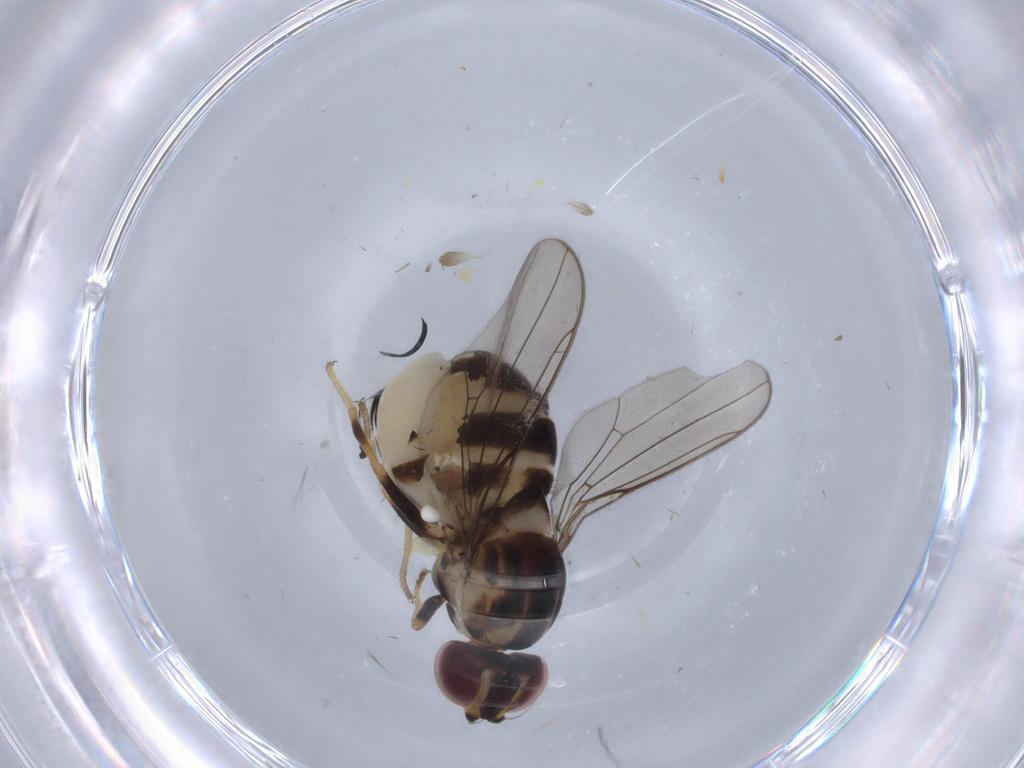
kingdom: Animalia
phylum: Arthropoda
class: Insecta
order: Diptera
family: Chloropidae
